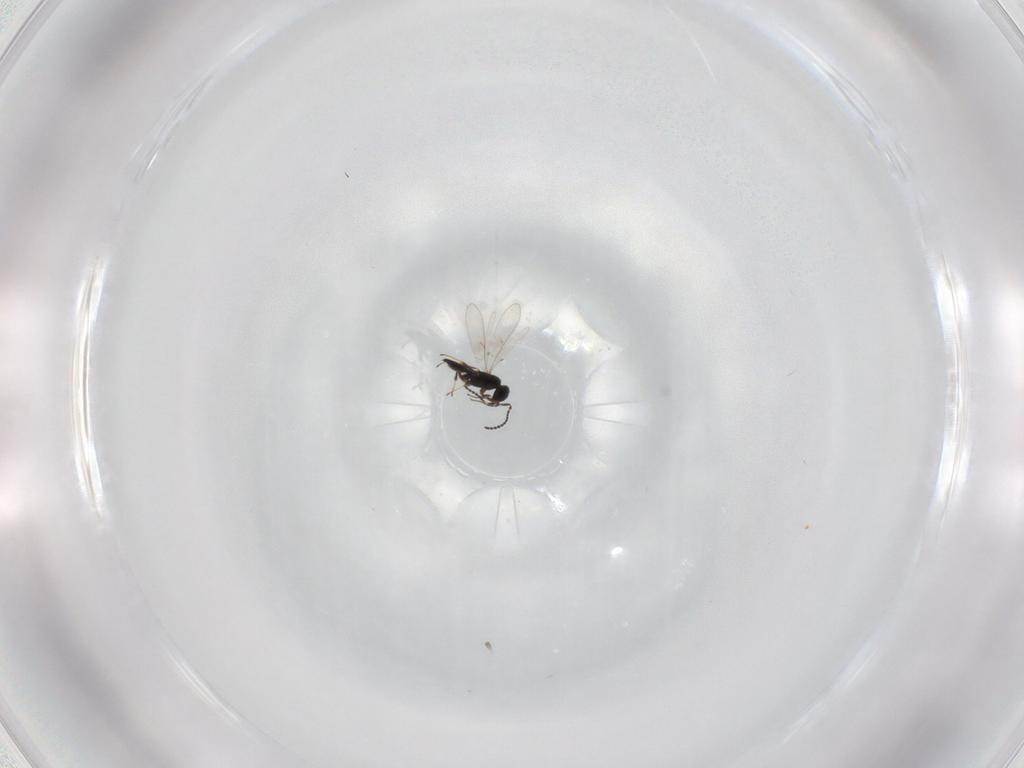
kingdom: Animalia
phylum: Arthropoda
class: Insecta
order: Hymenoptera
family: Scelionidae
